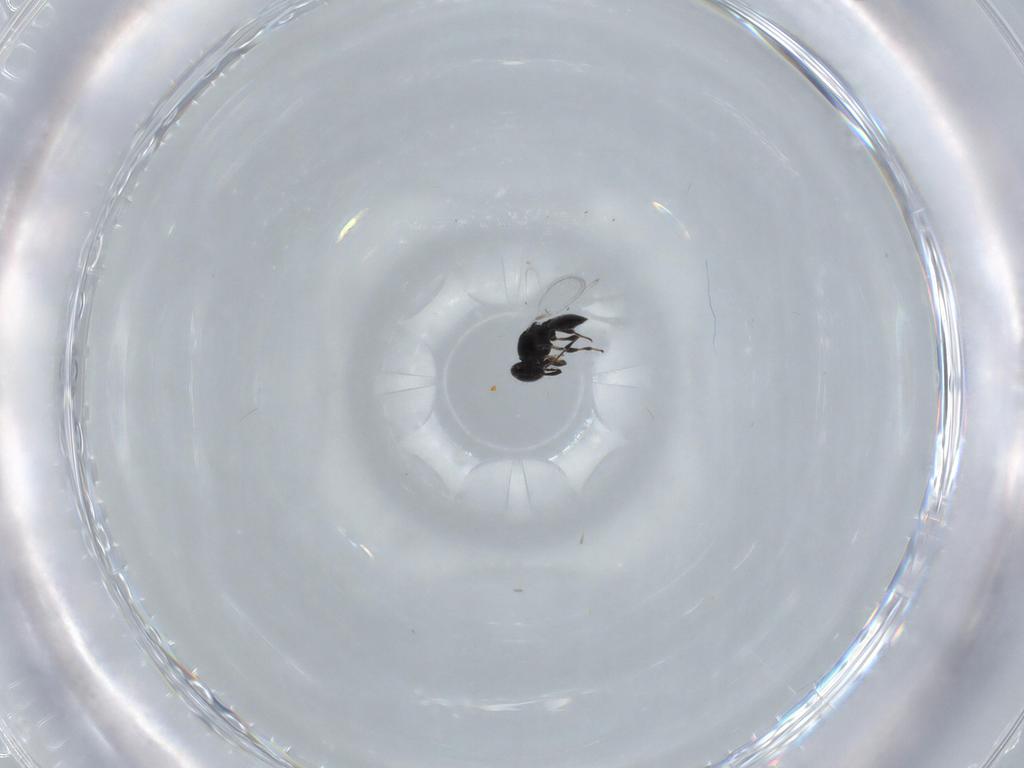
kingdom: Animalia
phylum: Arthropoda
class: Insecta
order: Hymenoptera
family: Platygastridae
